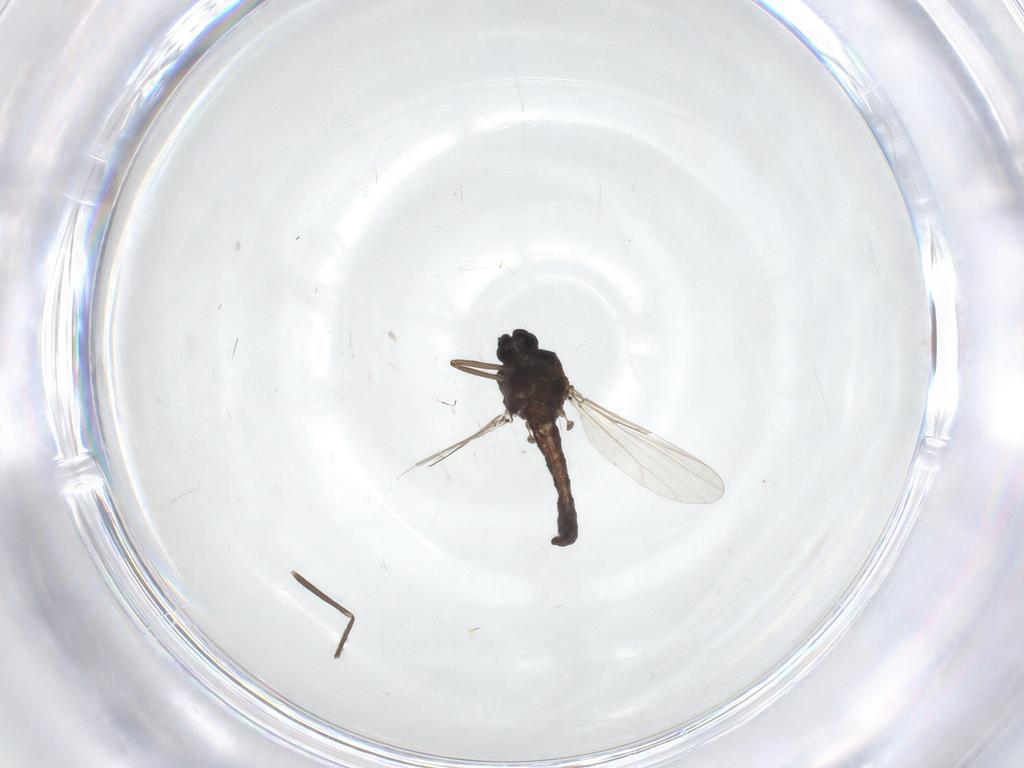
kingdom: Animalia
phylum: Arthropoda
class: Insecta
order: Diptera
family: Ceratopogonidae
